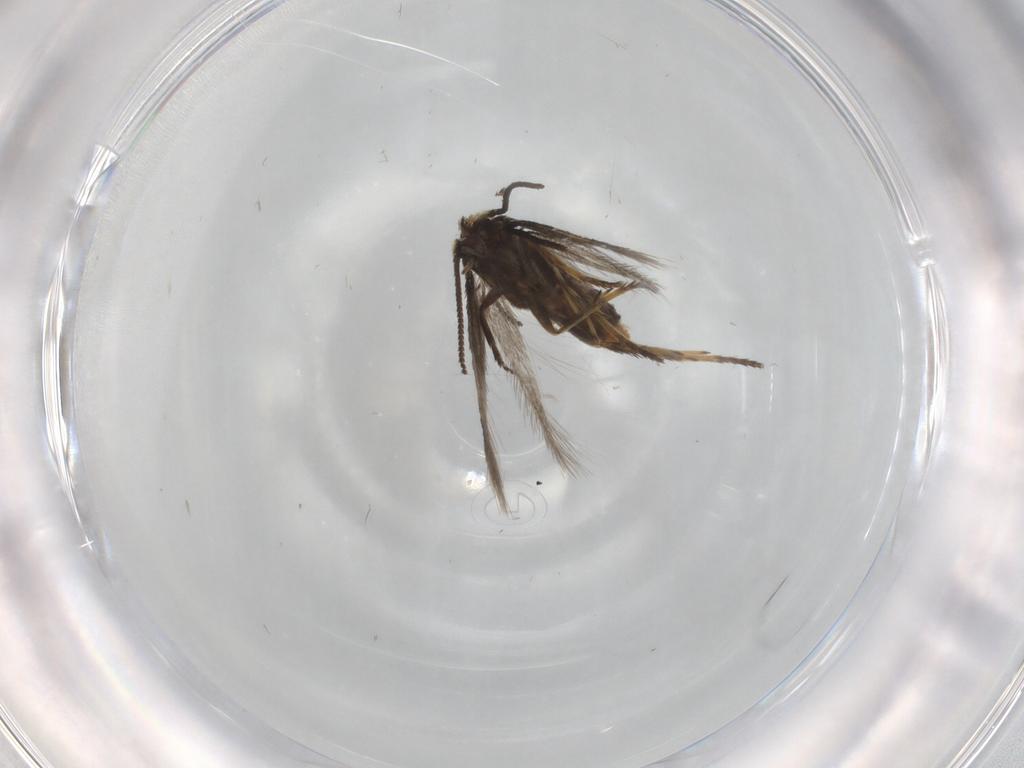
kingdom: Animalia
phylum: Arthropoda
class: Insecta
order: Lepidoptera
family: Nepticulidae
